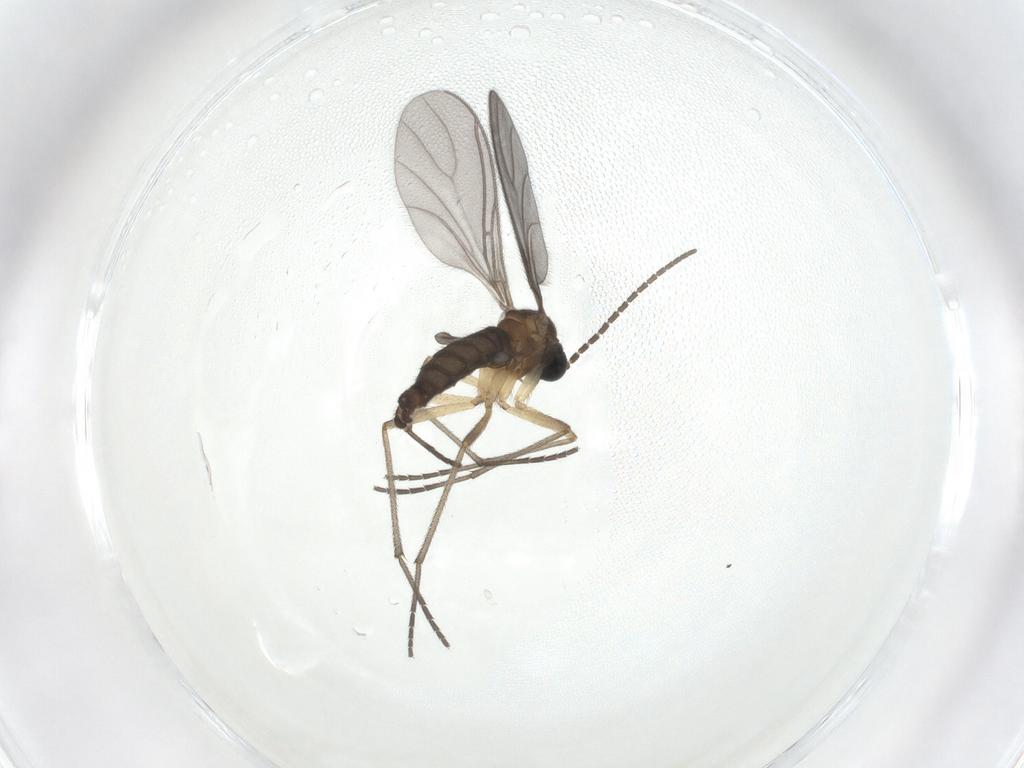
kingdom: Animalia
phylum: Arthropoda
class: Insecta
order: Diptera
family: Sciaridae
